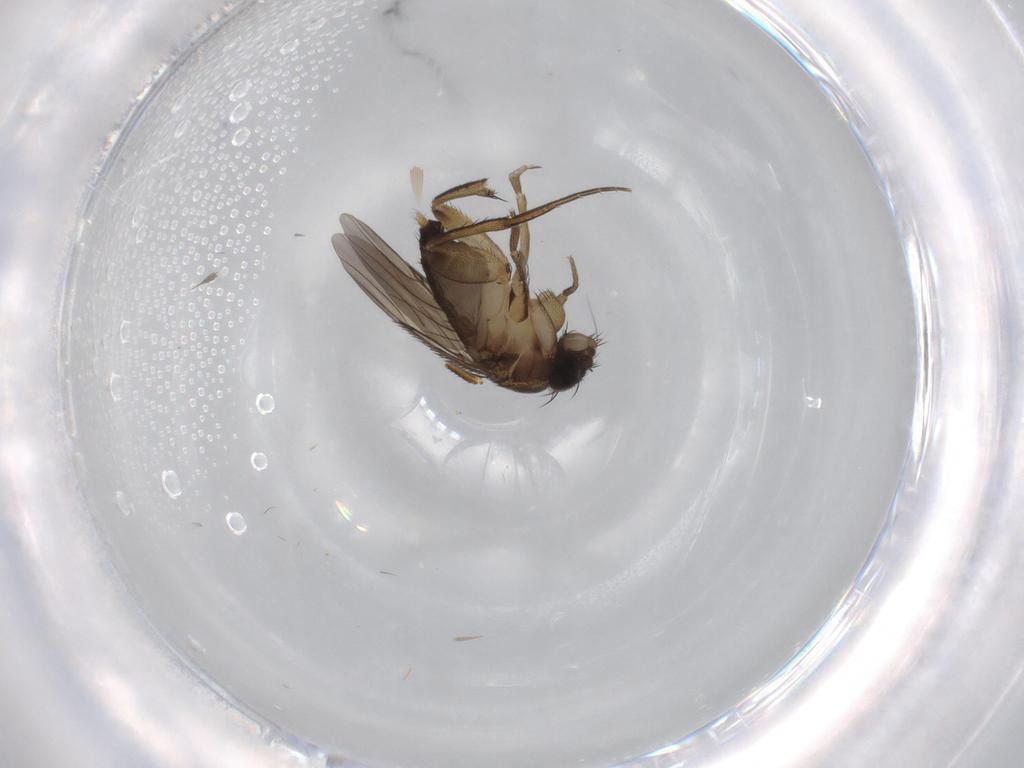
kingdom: Animalia
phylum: Arthropoda
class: Insecta
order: Diptera
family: Phoridae
